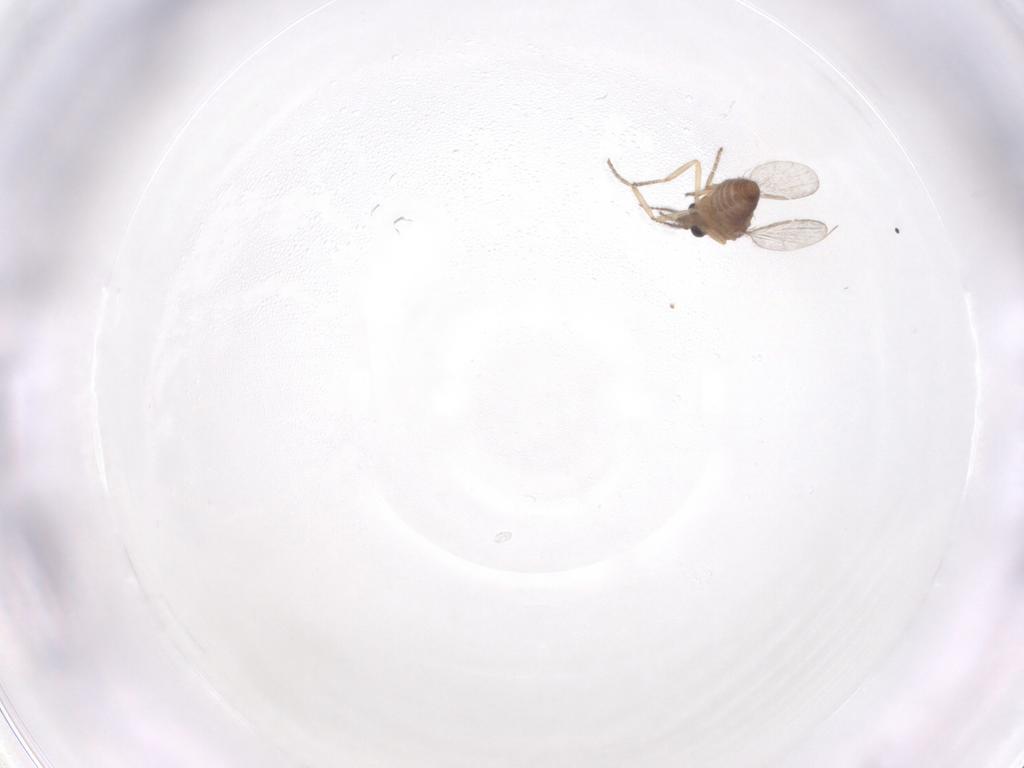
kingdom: Animalia
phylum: Arthropoda
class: Insecta
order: Diptera
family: Ceratopogonidae
